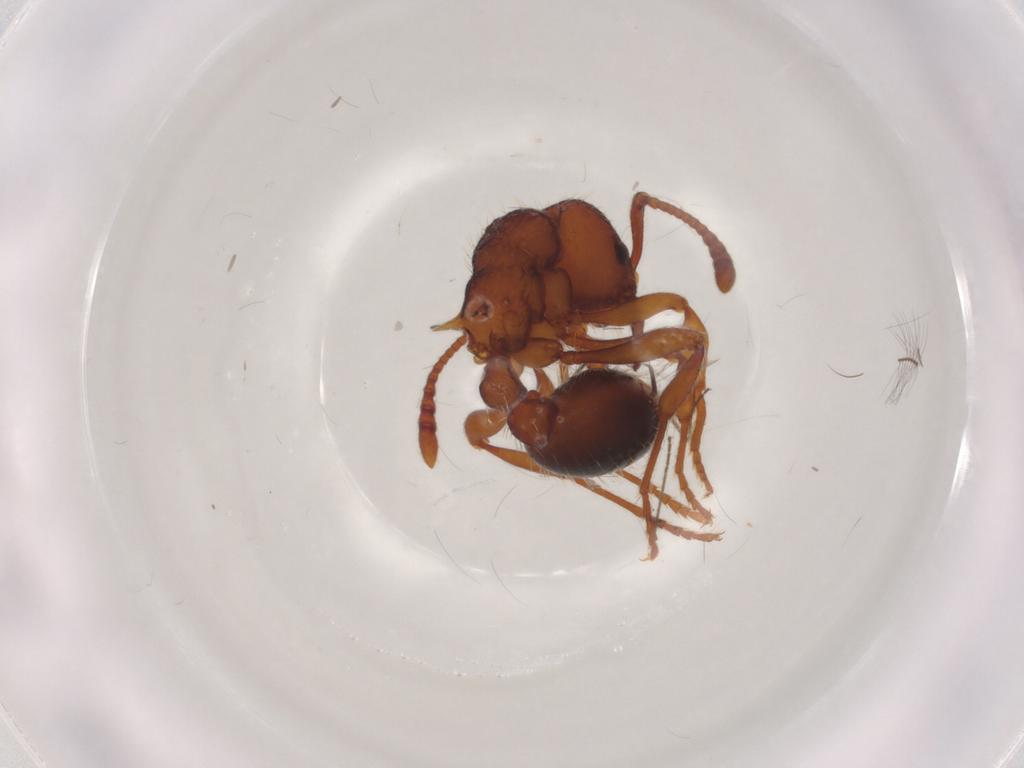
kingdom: Animalia
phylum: Arthropoda
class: Insecta
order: Hymenoptera
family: Formicidae
